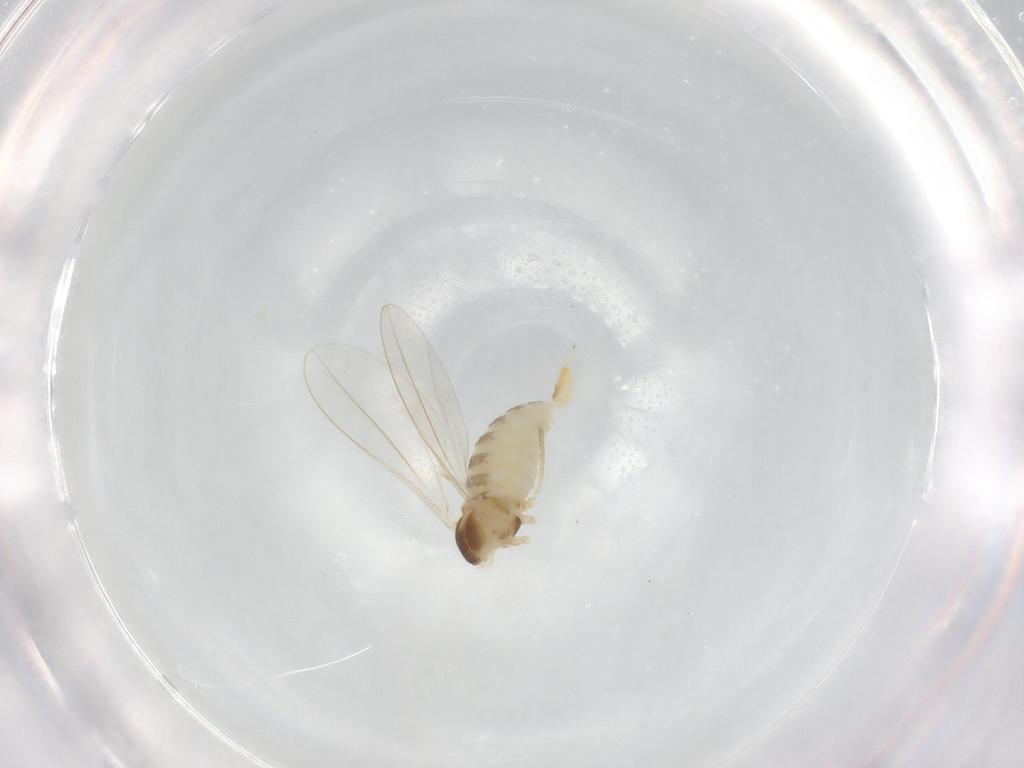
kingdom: Animalia
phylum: Arthropoda
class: Insecta
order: Diptera
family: Cecidomyiidae
